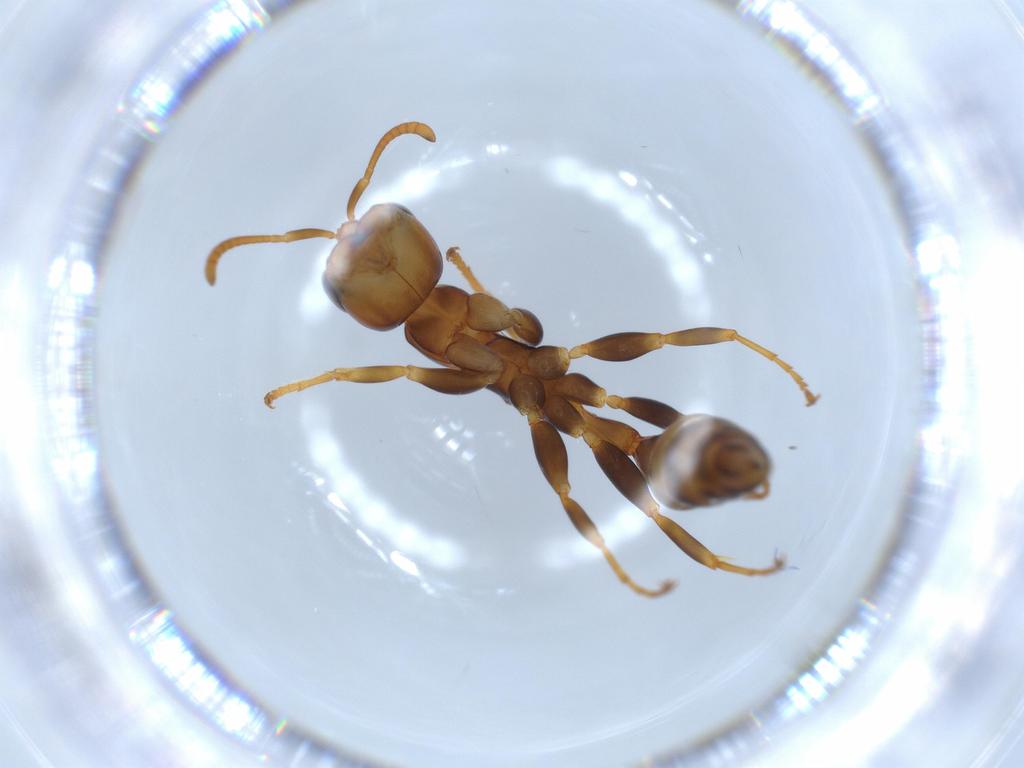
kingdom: Animalia
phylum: Arthropoda
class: Insecta
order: Hymenoptera
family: Formicidae
